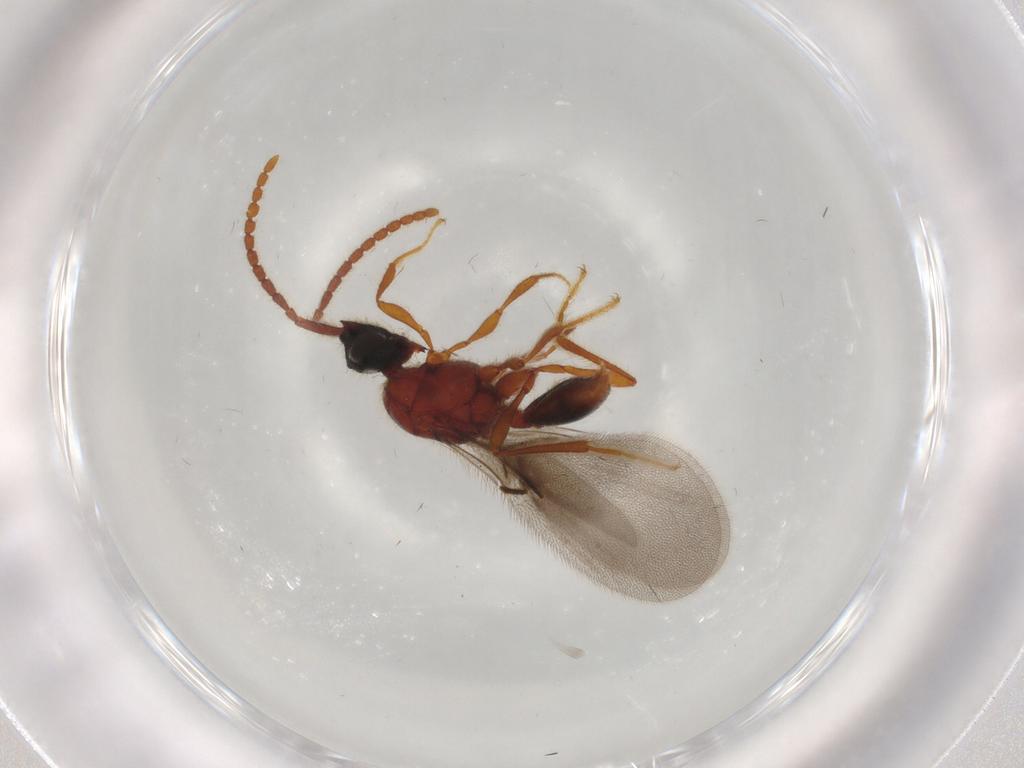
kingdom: Animalia
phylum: Arthropoda
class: Insecta
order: Hymenoptera
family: Diapriidae
